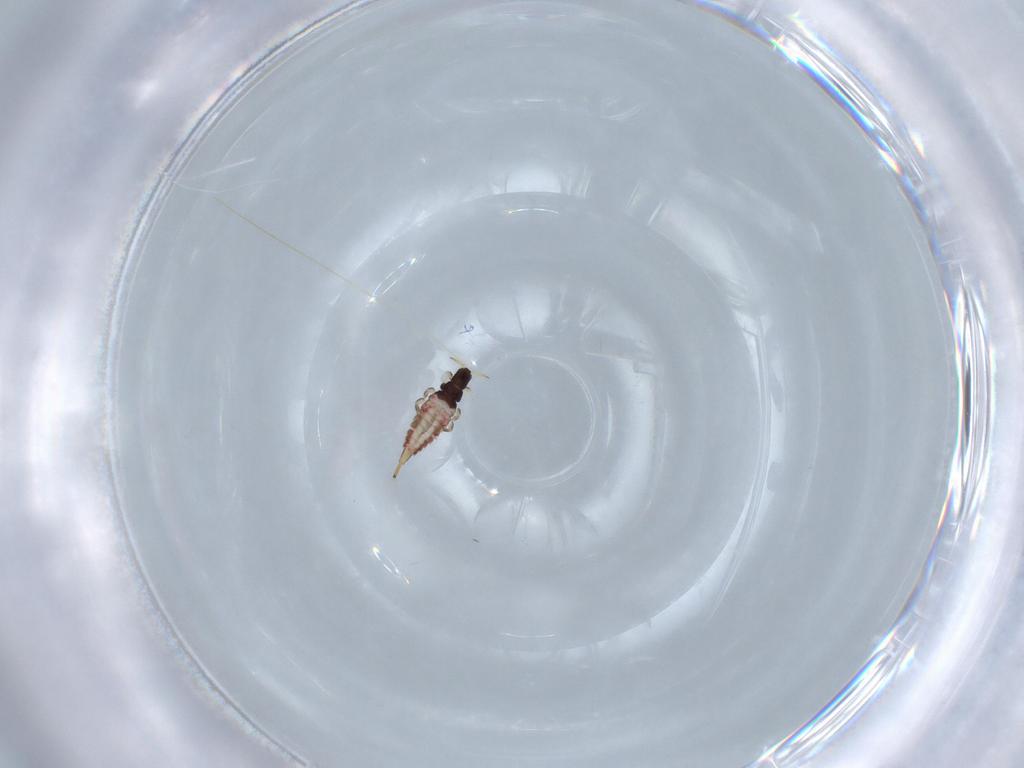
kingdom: Animalia
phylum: Arthropoda
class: Insecta
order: Thysanoptera
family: Phlaeothripidae
